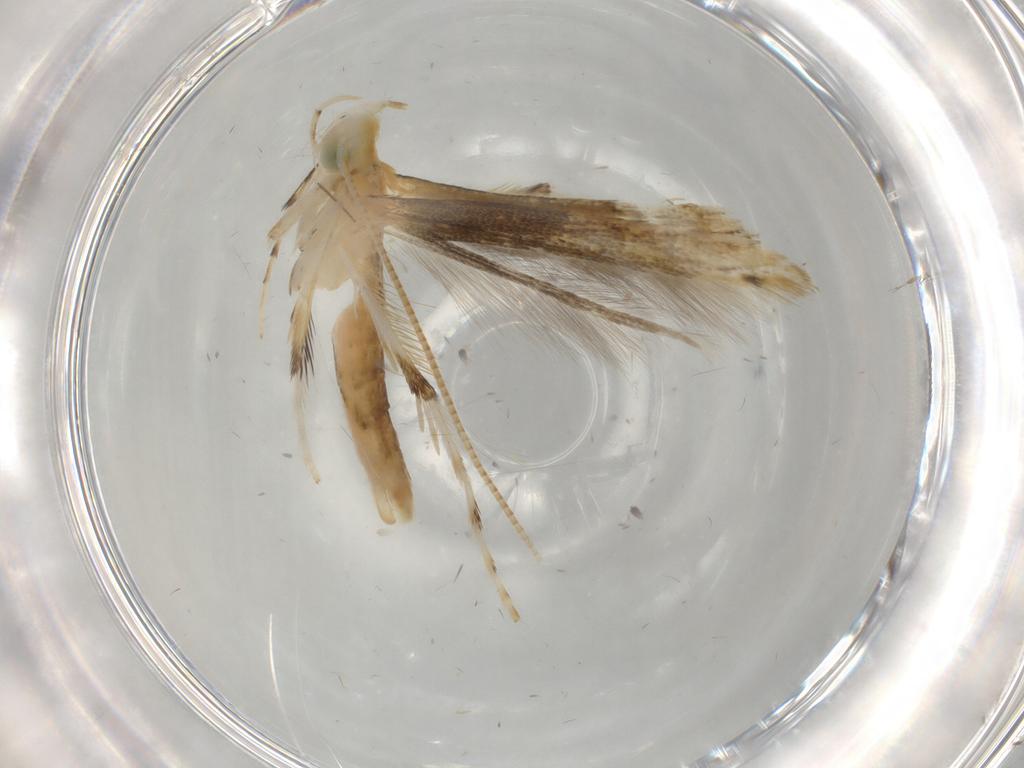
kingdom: Animalia
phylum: Arthropoda
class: Insecta
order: Lepidoptera
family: Gracillariidae
